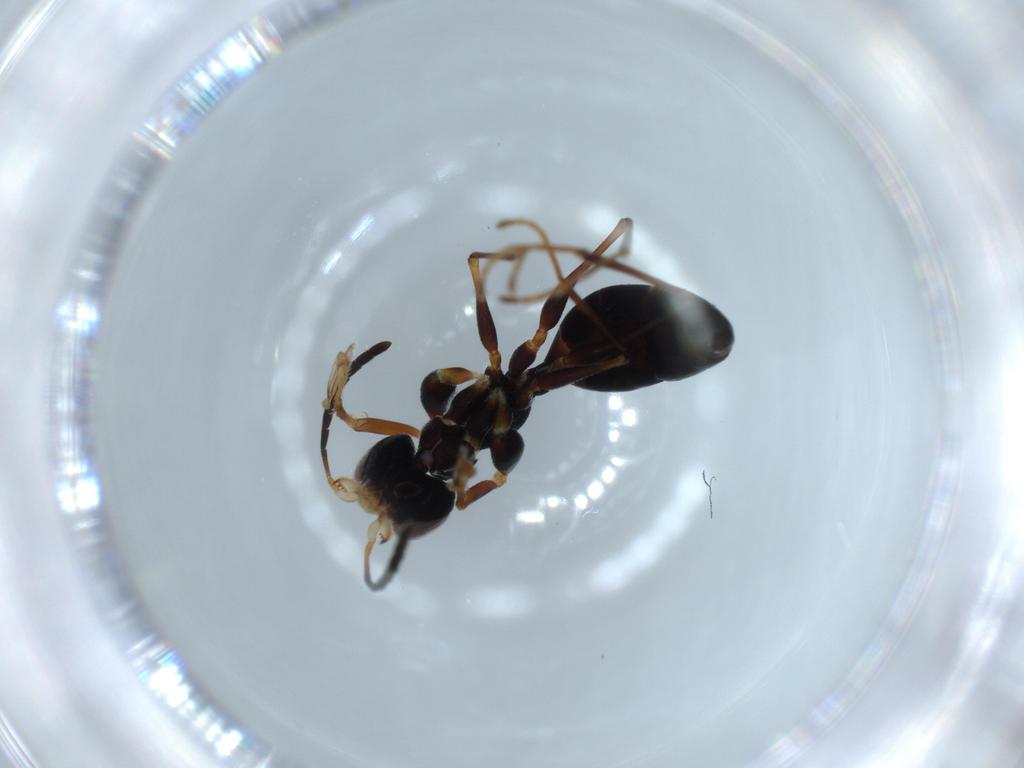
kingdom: Animalia
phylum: Arthropoda
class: Insecta
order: Hymenoptera
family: Dryinidae
